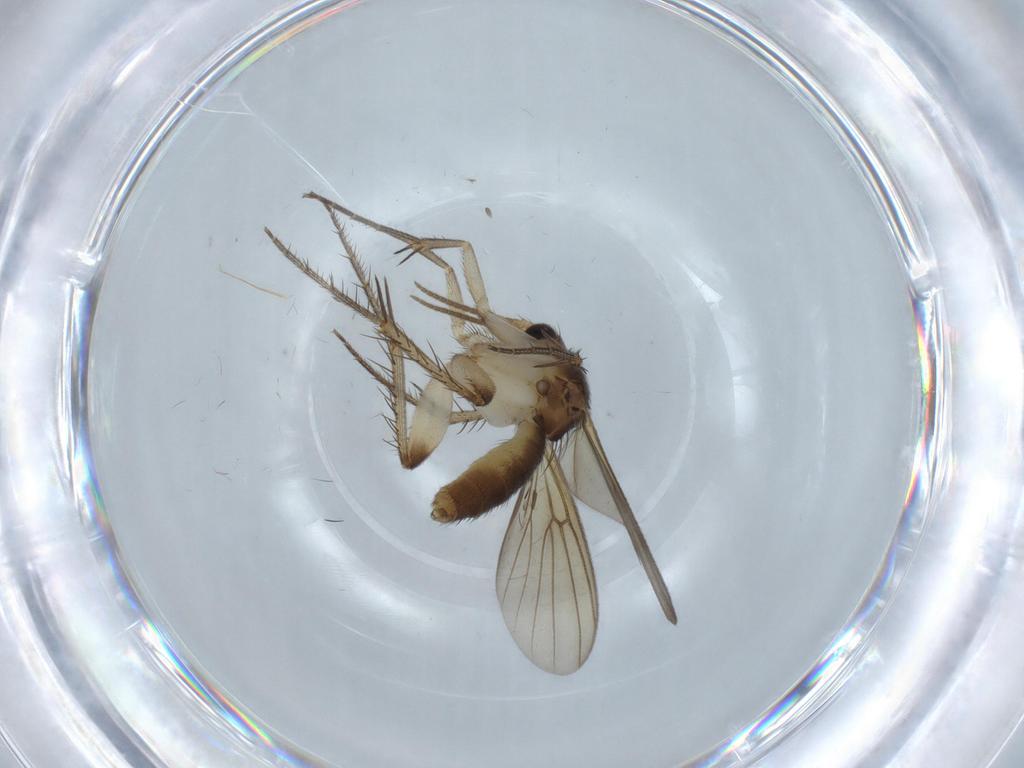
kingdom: Animalia
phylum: Arthropoda
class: Insecta
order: Diptera
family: Mycetophilidae
